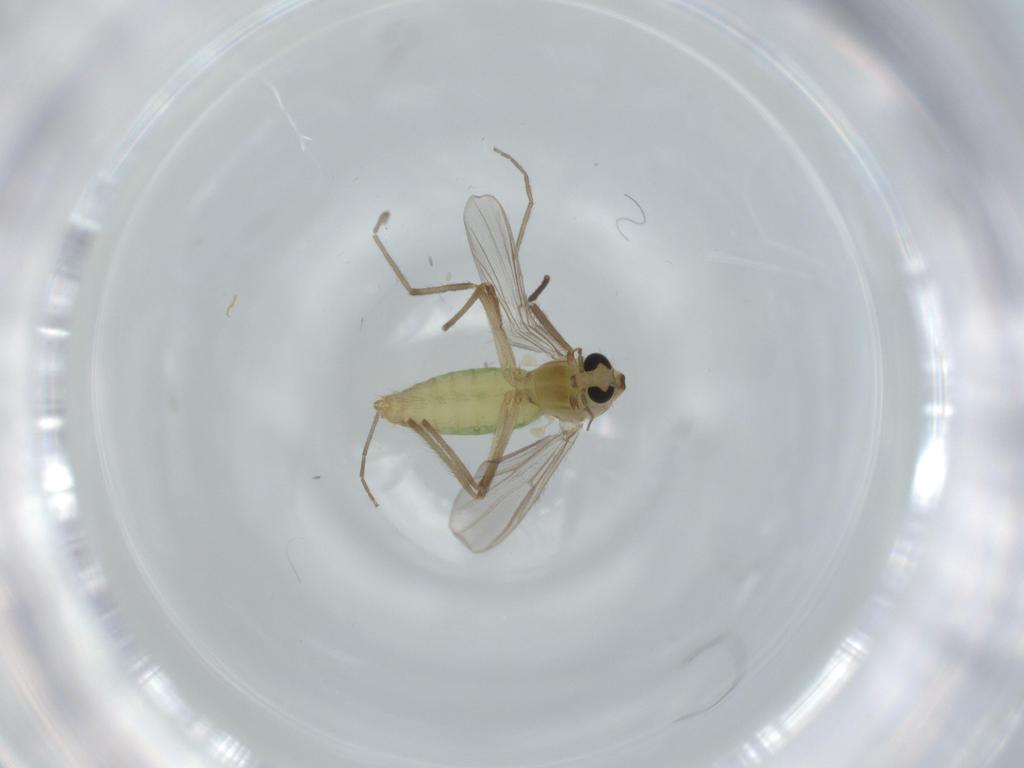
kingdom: Animalia
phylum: Arthropoda
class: Insecta
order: Diptera
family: Chironomidae
